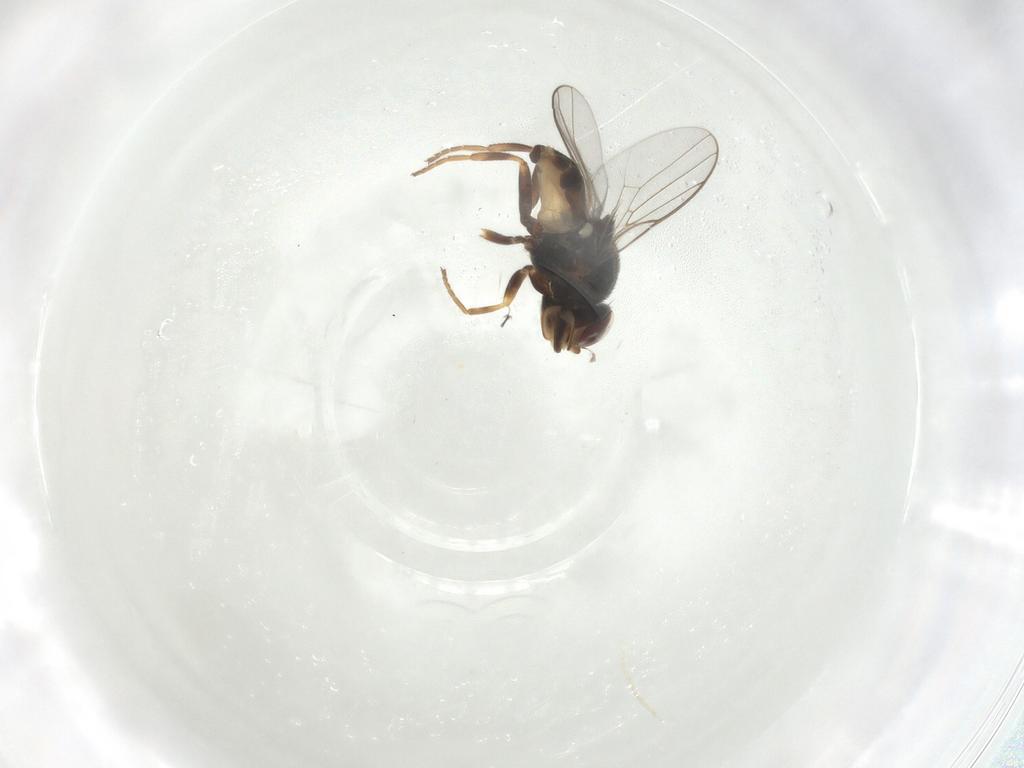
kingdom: Animalia
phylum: Arthropoda
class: Insecta
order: Diptera
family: Chloropidae
